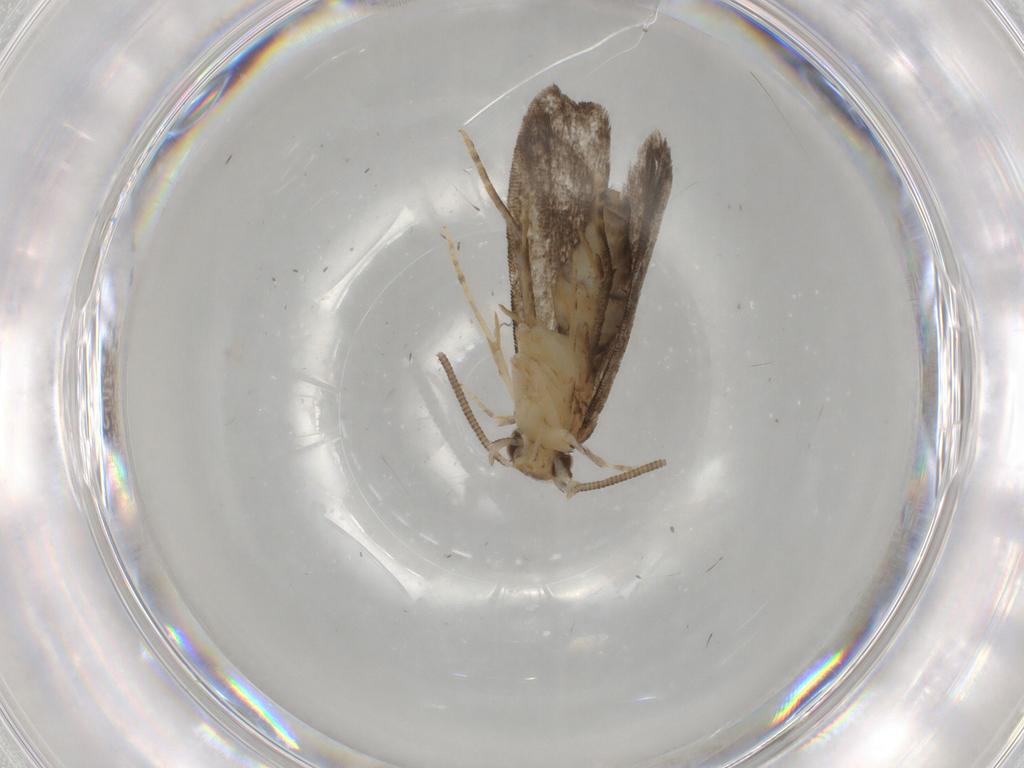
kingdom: Animalia
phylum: Arthropoda
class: Insecta
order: Lepidoptera
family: Dryadaulidae
